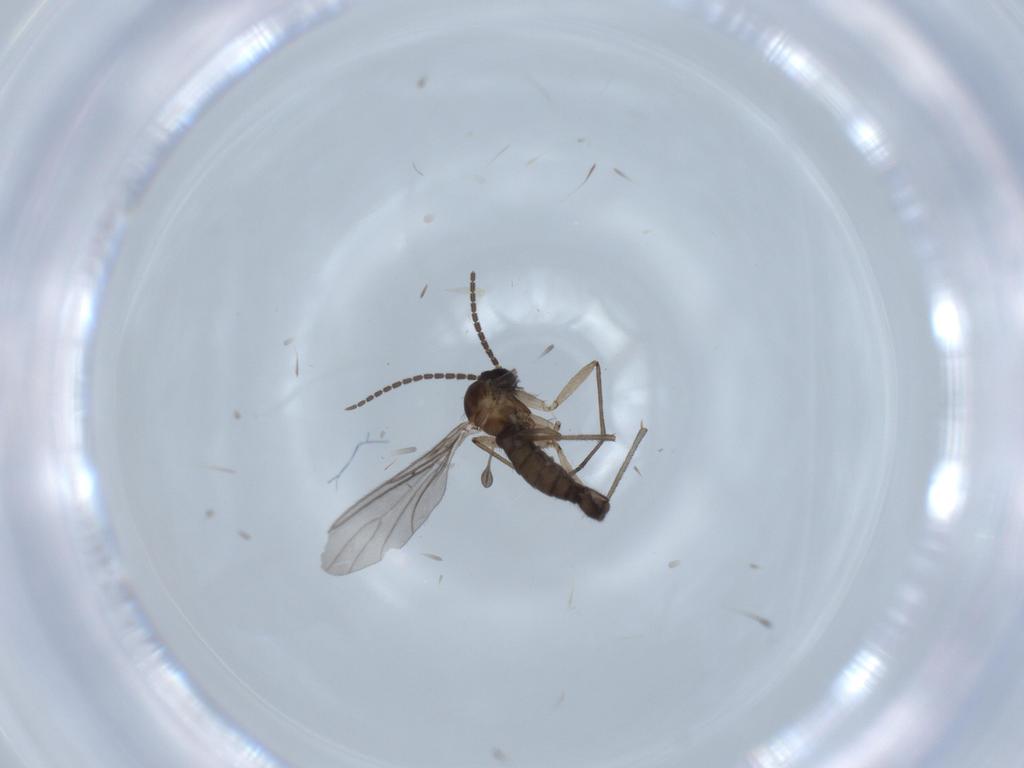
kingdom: Animalia
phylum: Arthropoda
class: Insecta
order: Diptera
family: Sciaridae
